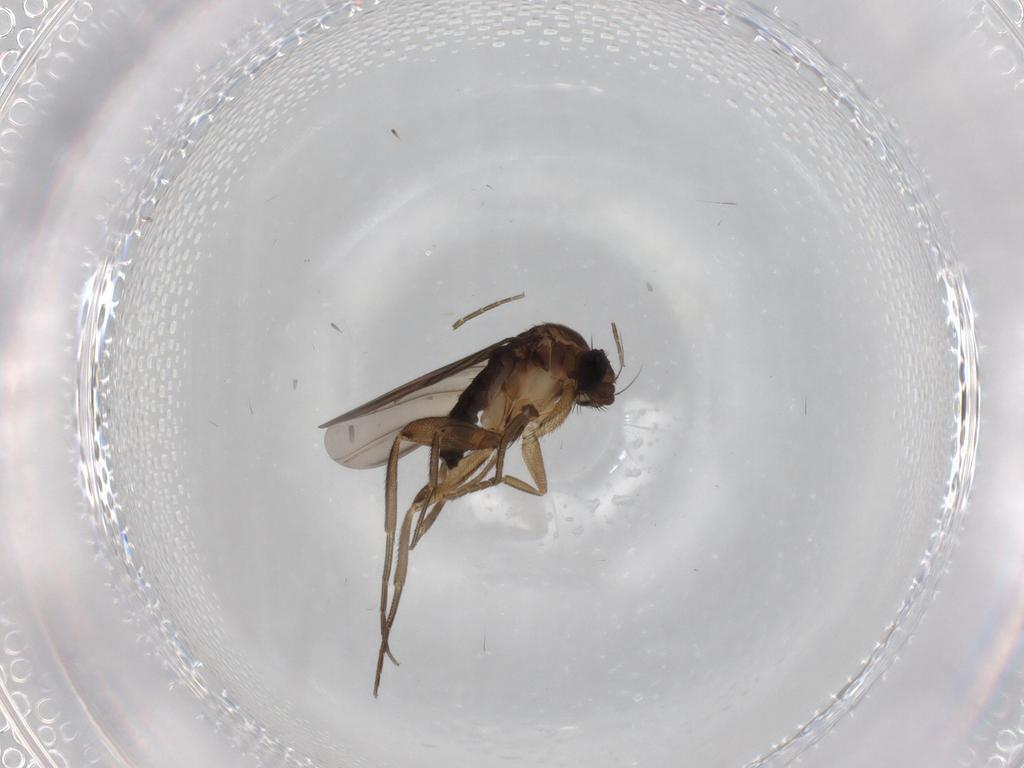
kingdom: Animalia
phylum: Arthropoda
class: Insecta
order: Diptera
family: Phoridae
